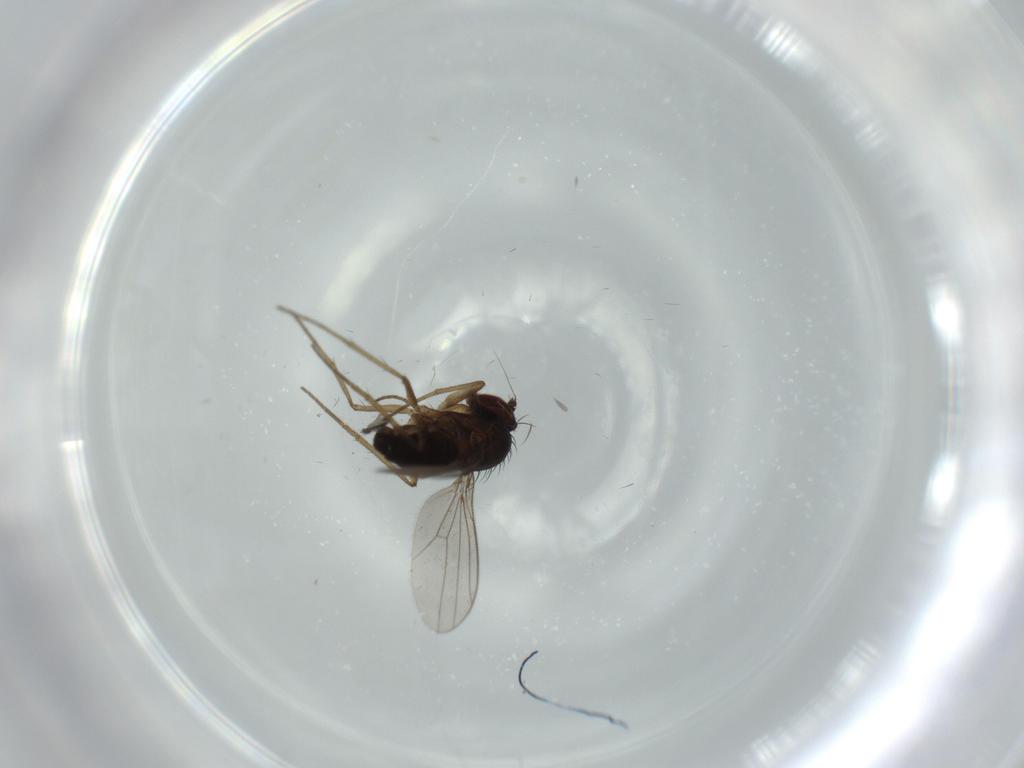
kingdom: Animalia
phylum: Arthropoda
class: Insecta
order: Diptera
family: Dolichopodidae
